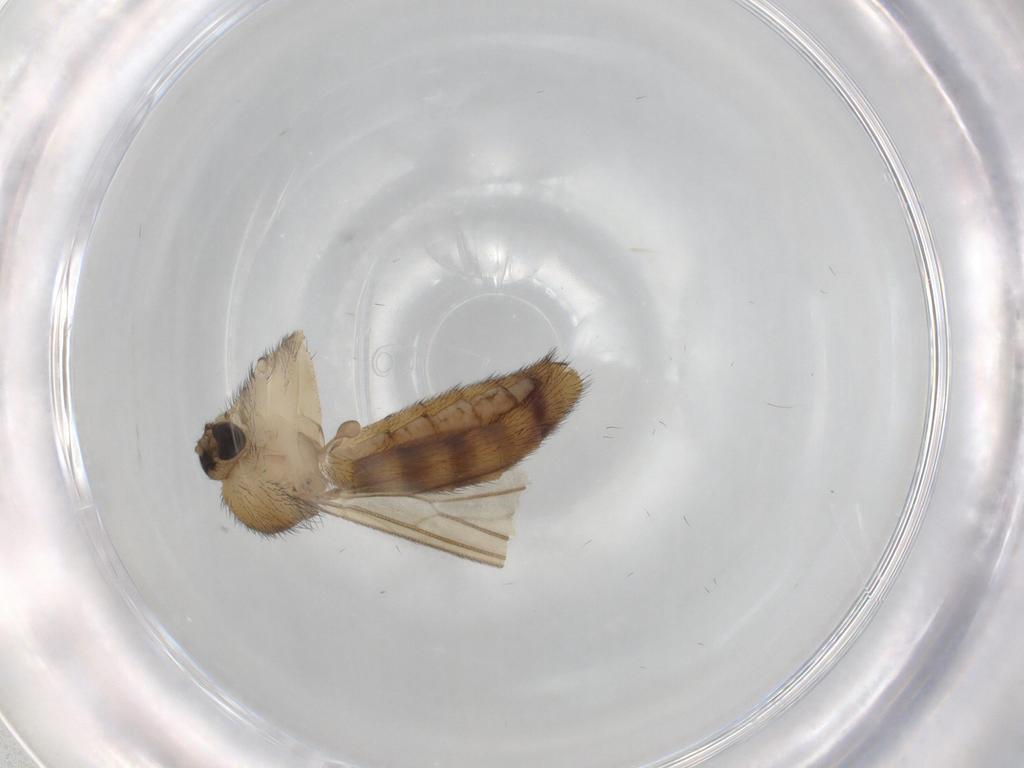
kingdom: Animalia
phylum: Arthropoda
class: Insecta
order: Diptera
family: Keroplatidae
